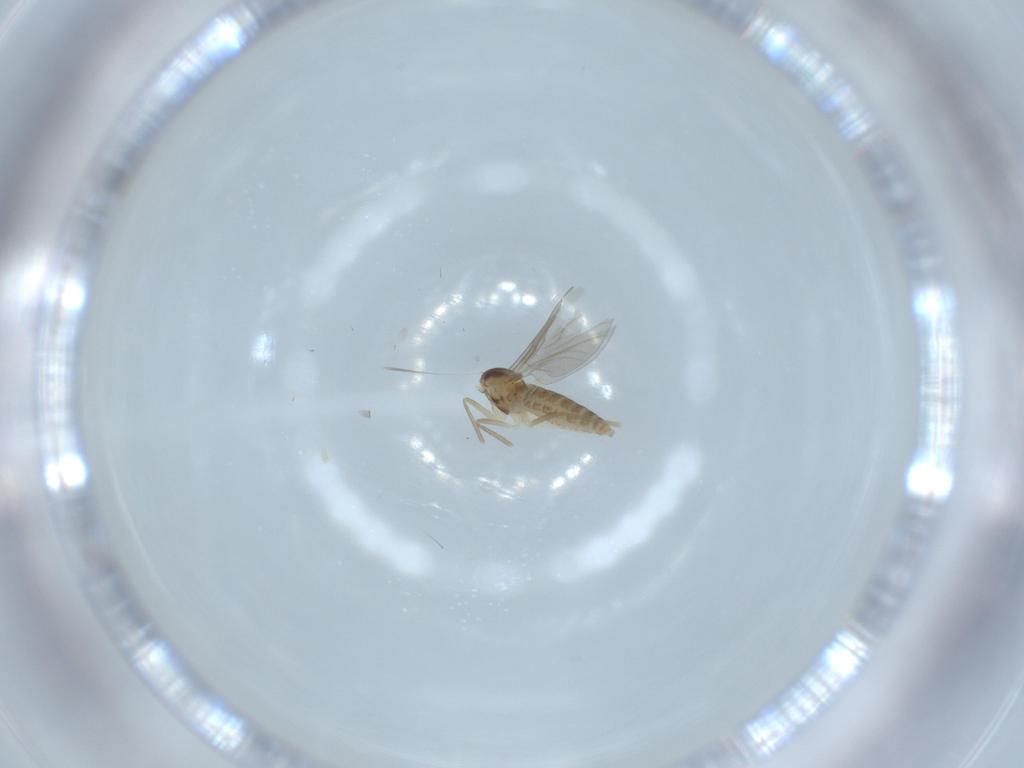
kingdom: Animalia
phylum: Arthropoda
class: Insecta
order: Diptera
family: Cecidomyiidae
